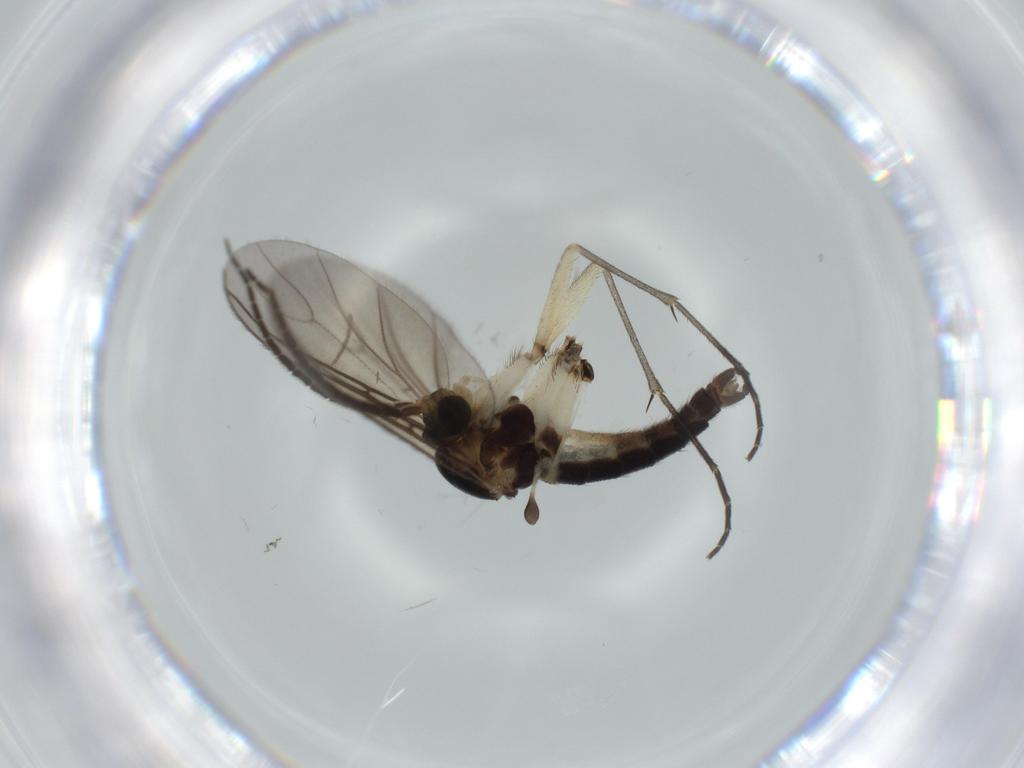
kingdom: Animalia
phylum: Arthropoda
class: Insecta
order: Diptera
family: Sciaridae
